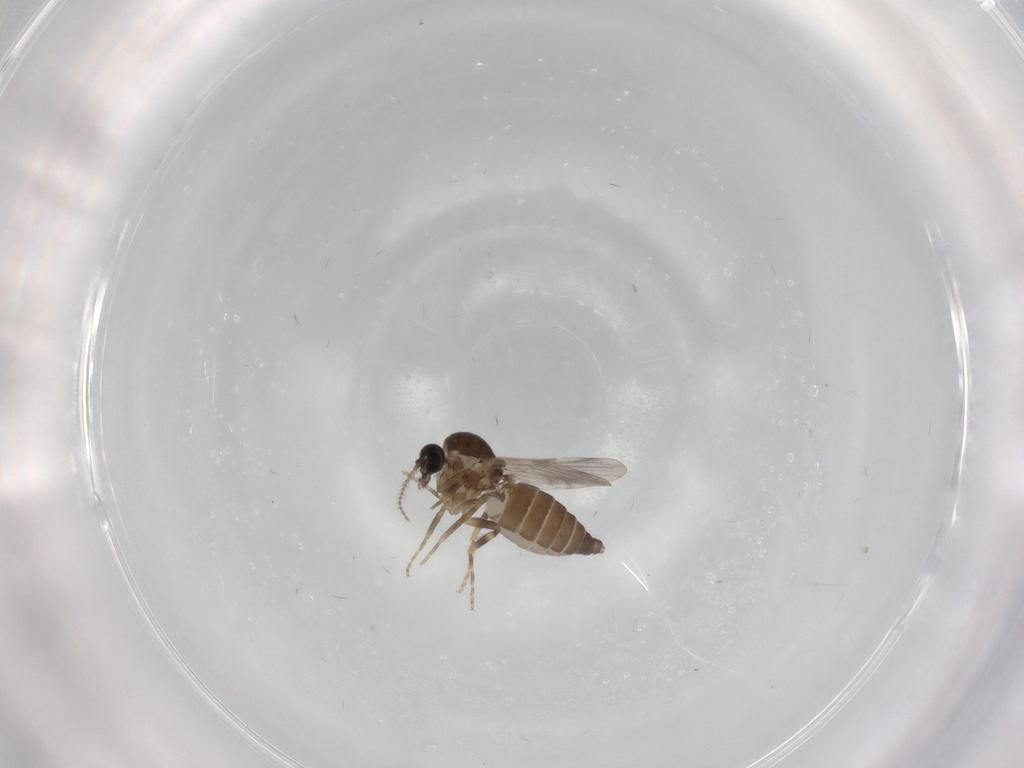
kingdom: Animalia
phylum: Arthropoda
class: Insecta
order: Diptera
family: Ceratopogonidae
